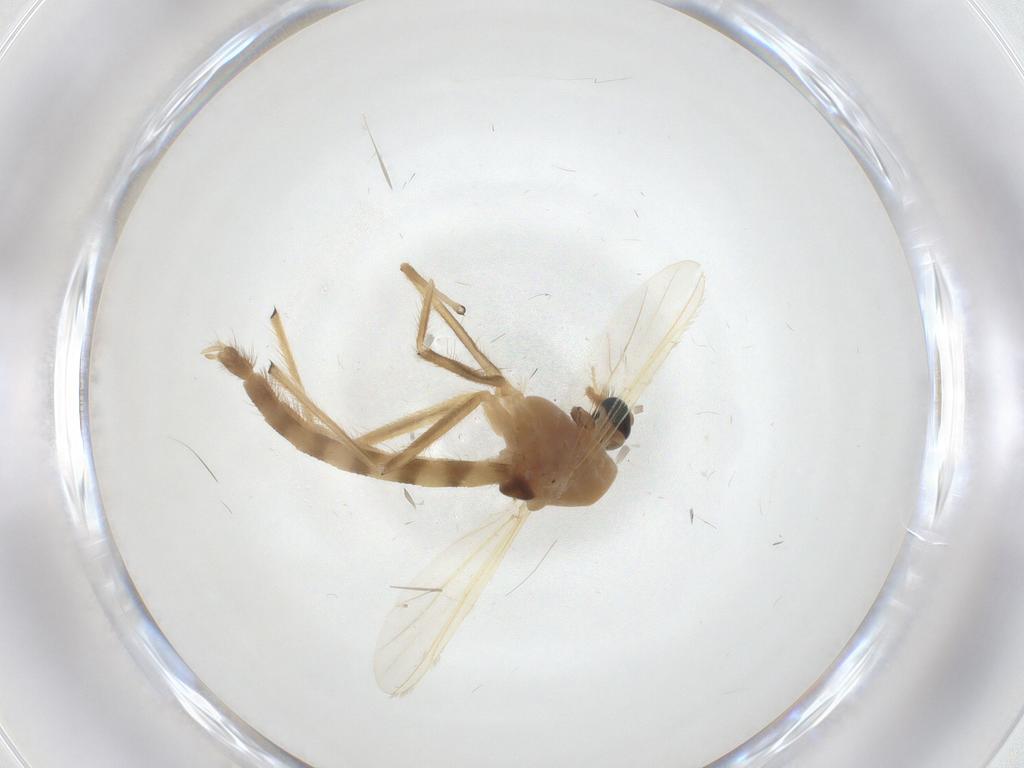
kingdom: Animalia
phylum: Arthropoda
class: Insecta
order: Diptera
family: Chironomidae
